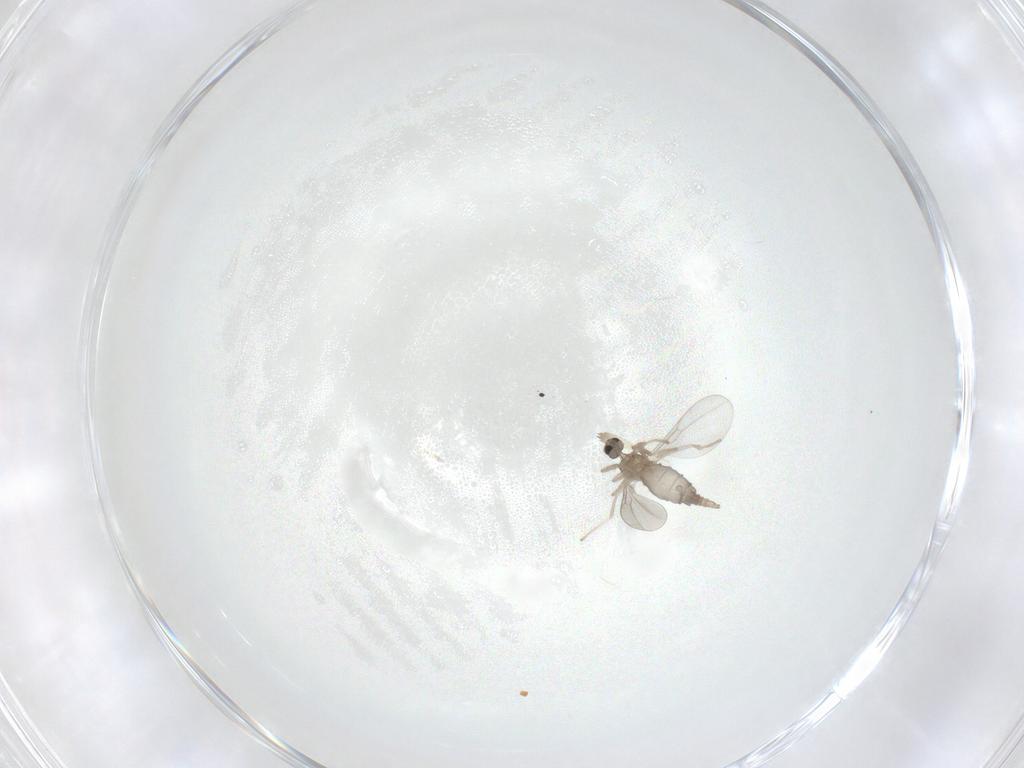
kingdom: Animalia
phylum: Arthropoda
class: Insecta
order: Diptera
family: Cecidomyiidae
